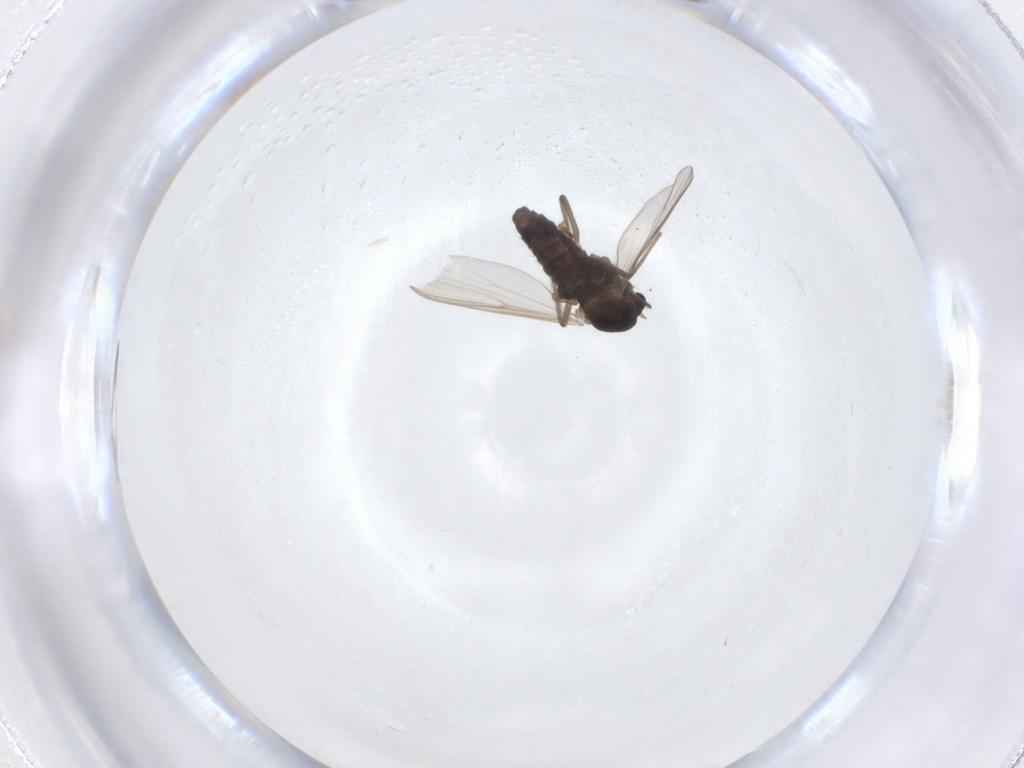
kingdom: Animalia
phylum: Arthropoda
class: Insecta
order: Diptera
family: Chironomidae
